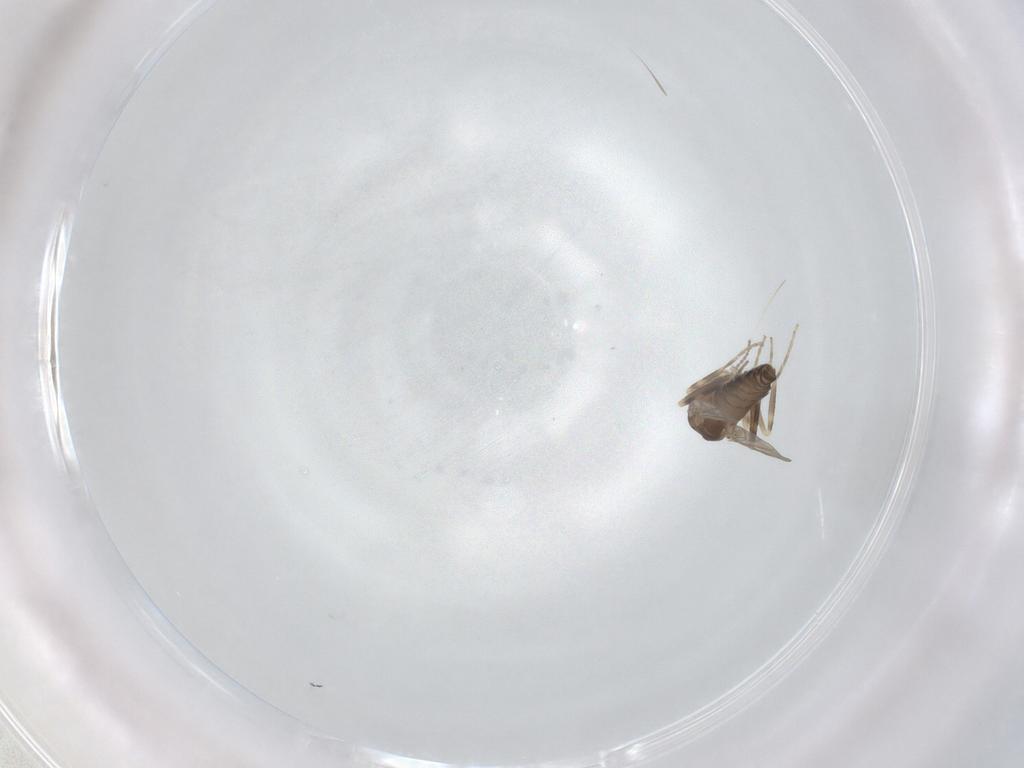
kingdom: Animalia
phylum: Arthropoda
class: Insecta
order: Diptera
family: Ceratopogonidae
